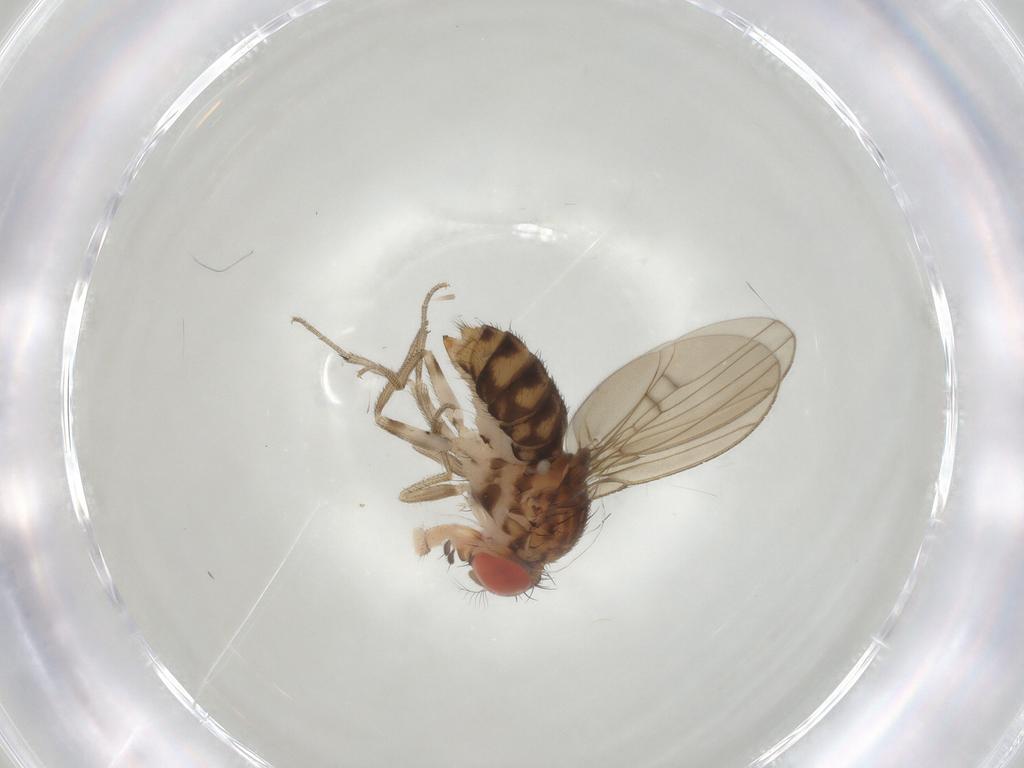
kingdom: Animalia
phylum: Arthropoda
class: Insecta
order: Diptera
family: Drosophilidae
